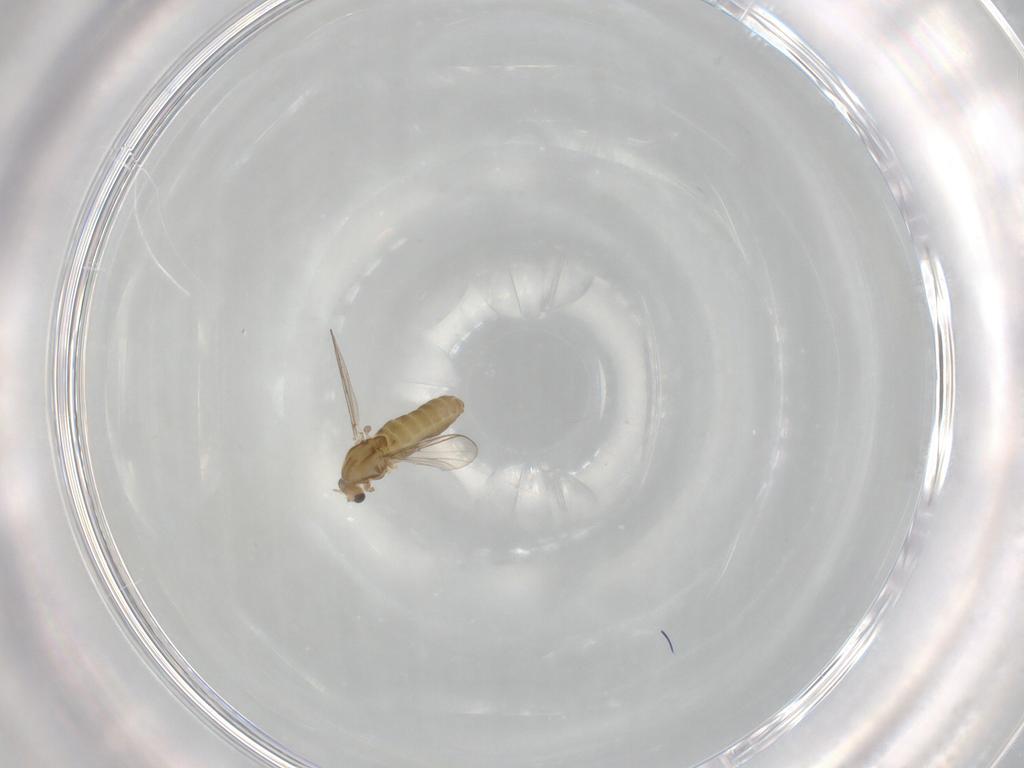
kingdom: Animalia
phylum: Arthropoda
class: Insecta
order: Diptera
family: Chironomidae
